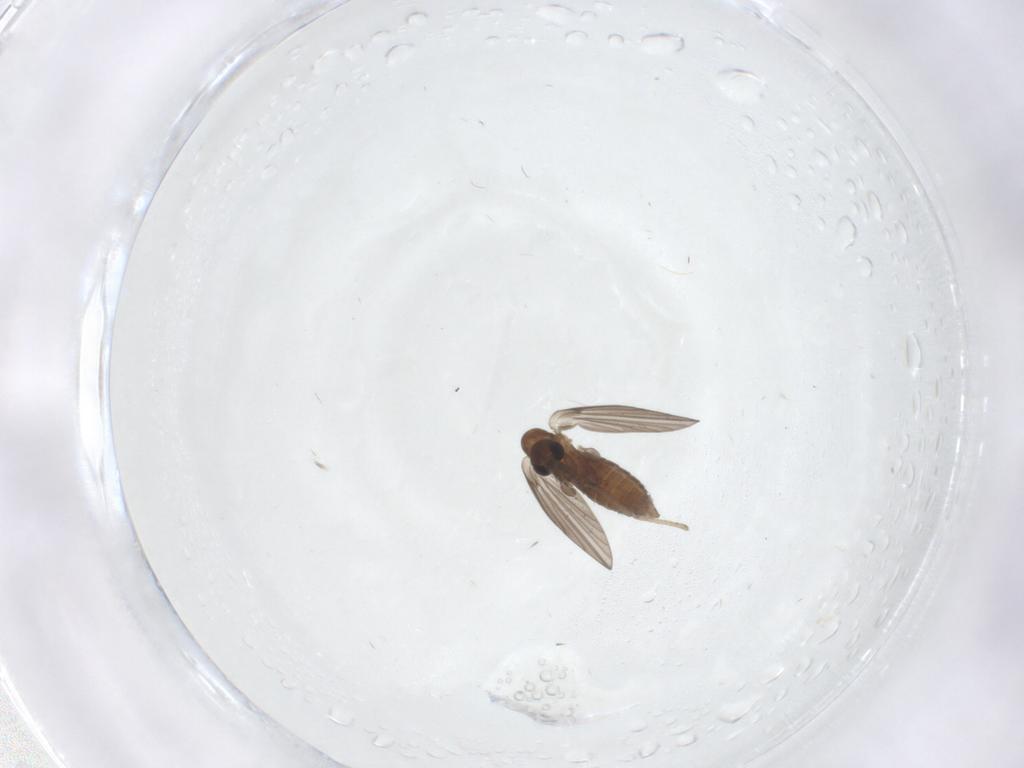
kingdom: Animalia
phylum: Arthropoda
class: Insecta
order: Diptera
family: Psychodidae
